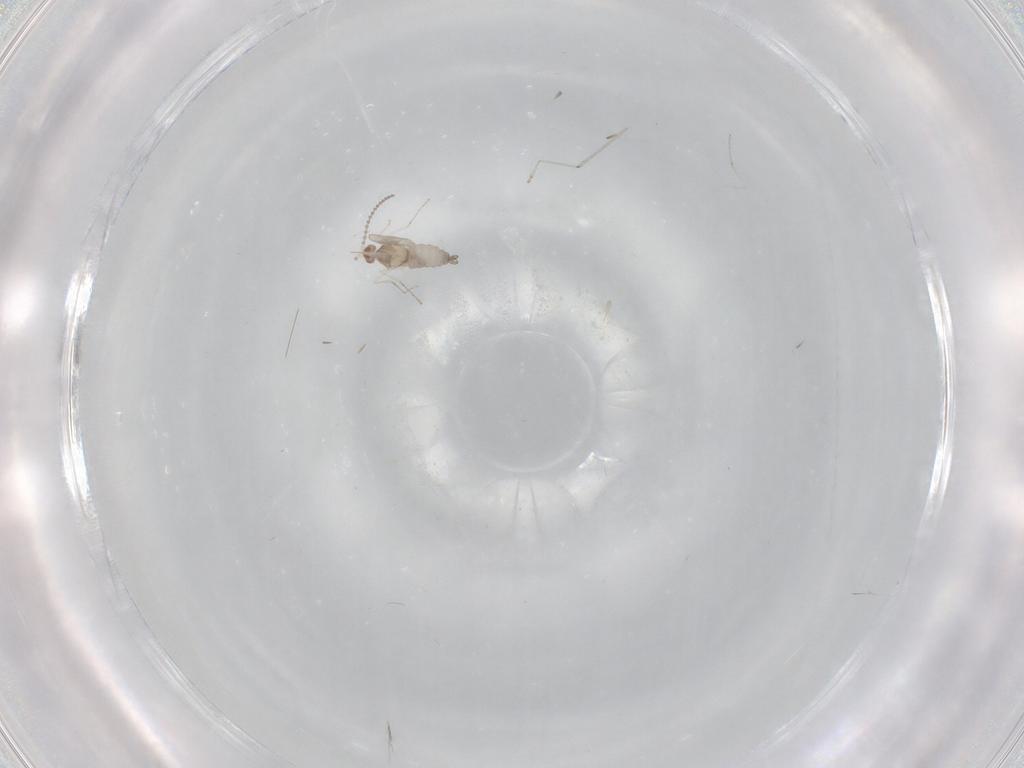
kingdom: Animalia
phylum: Arthropoda
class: Insecta
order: Diptera
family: Cecidomyiidae
